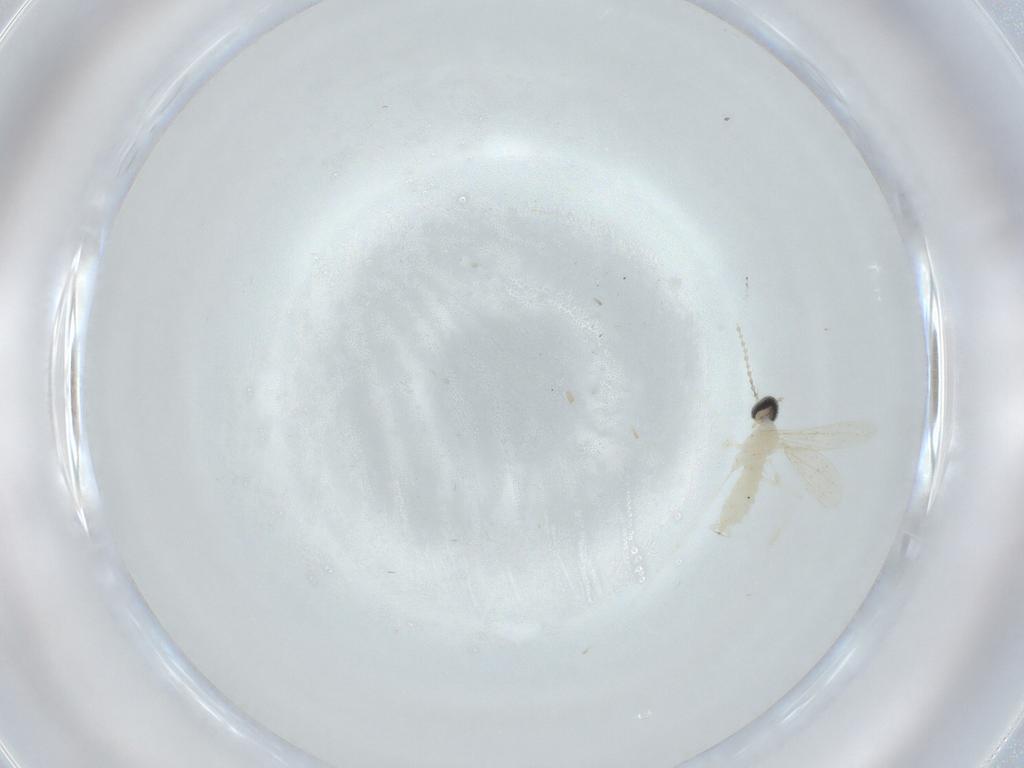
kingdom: Animalia
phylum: Arthropoda
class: Insecta
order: Diptera
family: Cecidomyiidae
